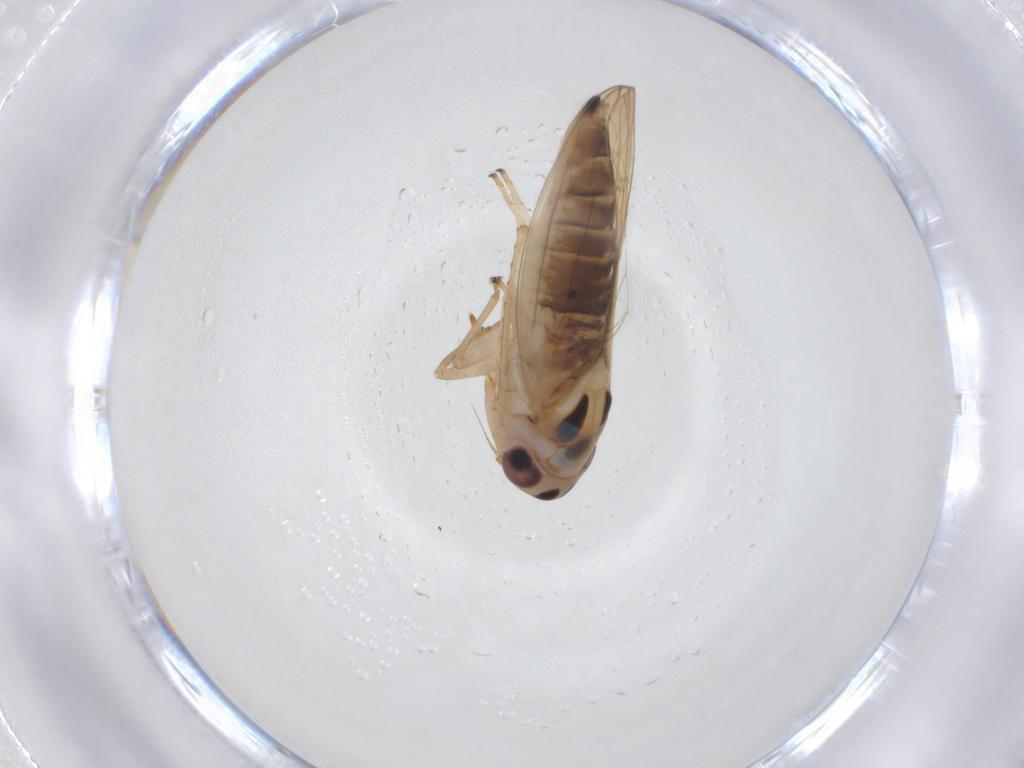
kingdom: Animalia
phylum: Arthropoda
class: Insecta
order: Hemiptera
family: Cicadellidae
